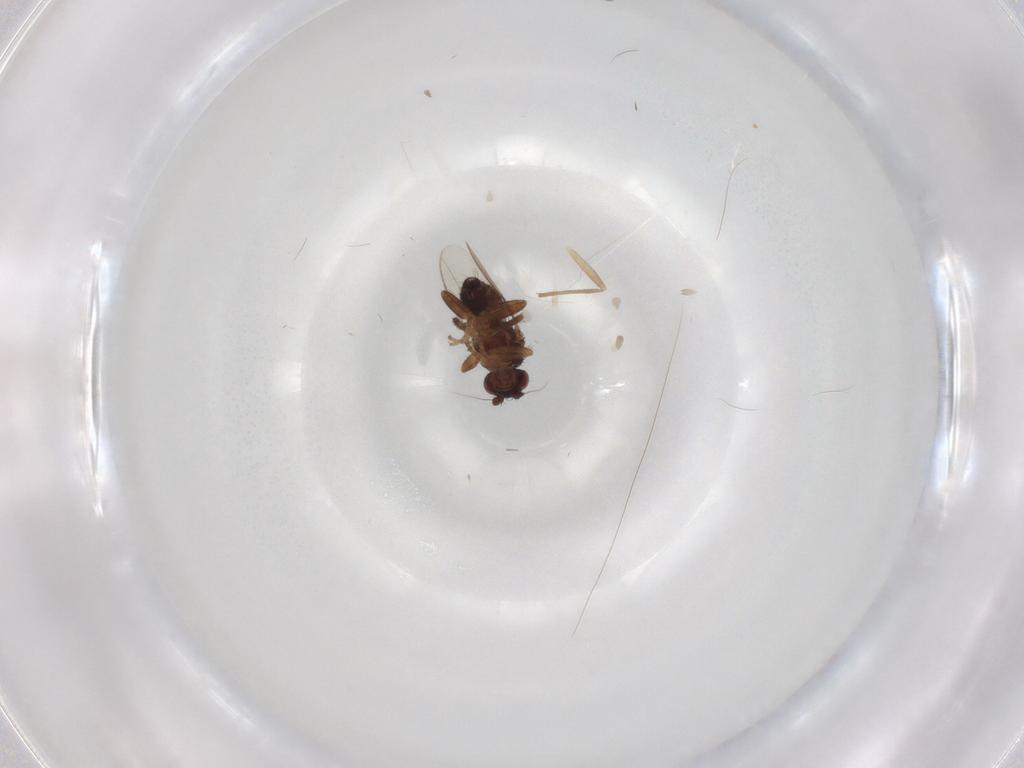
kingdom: Animalia
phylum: Arthropoda
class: Insecta
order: Diptera
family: Sphaeroceridae
